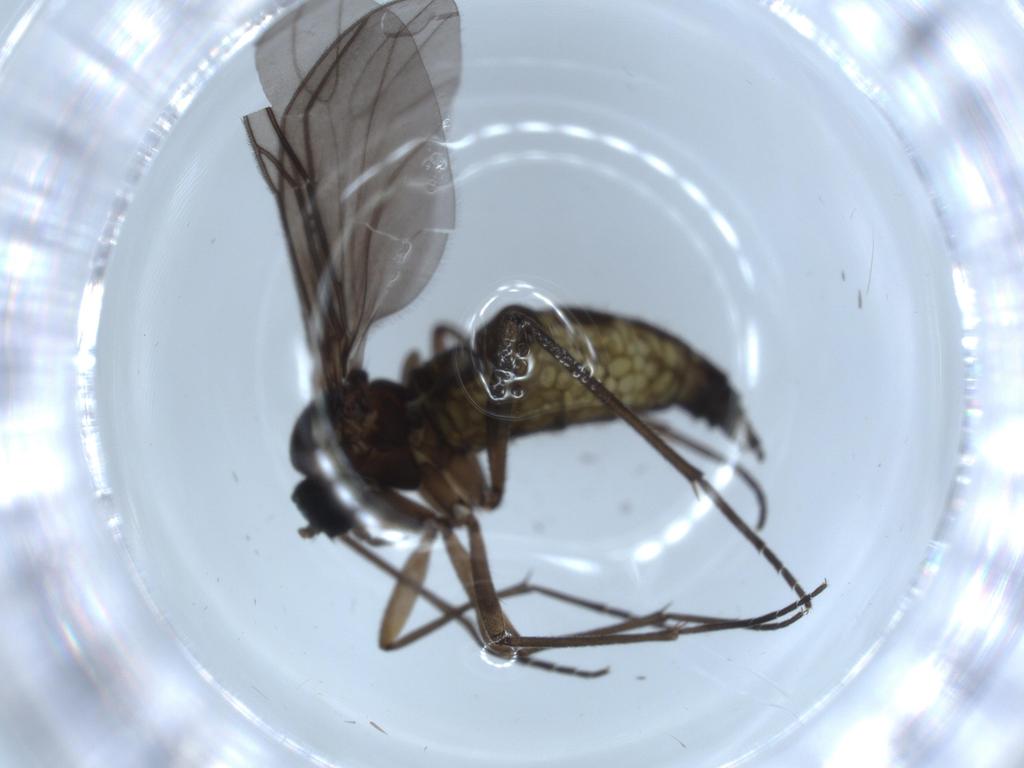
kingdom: Animalia
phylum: Arthropoda
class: Insecta
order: Diptera
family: Sciaridae
